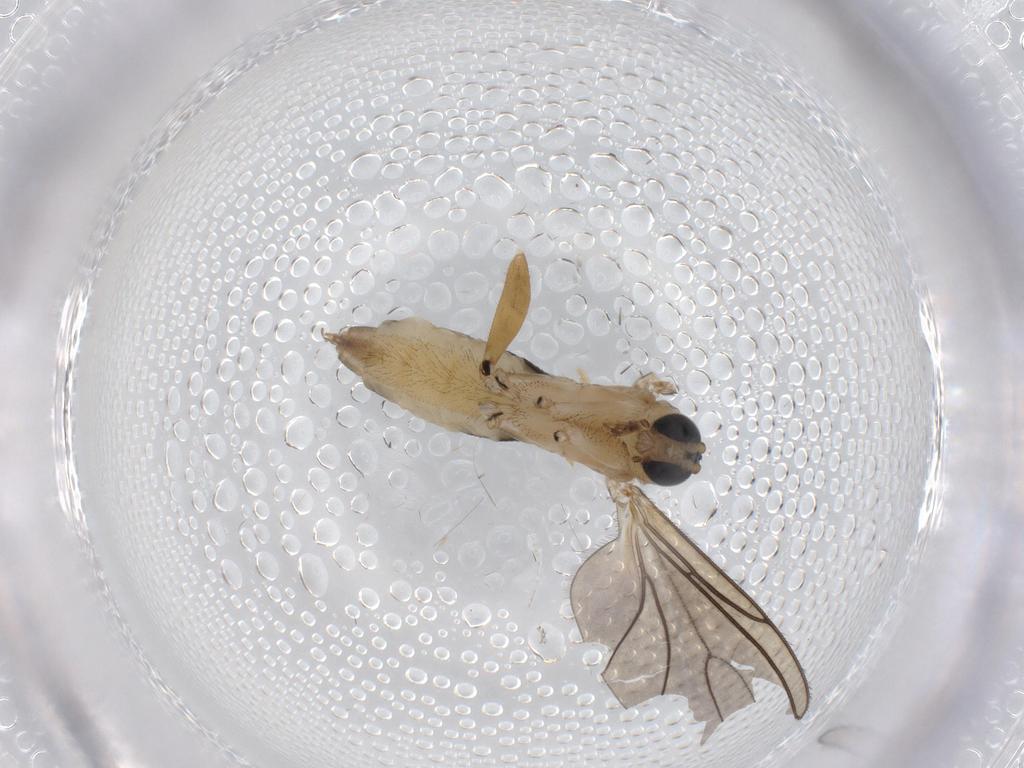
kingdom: Animalia
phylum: Arthropoda
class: Insecta
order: Diptera
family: Sciaridae
